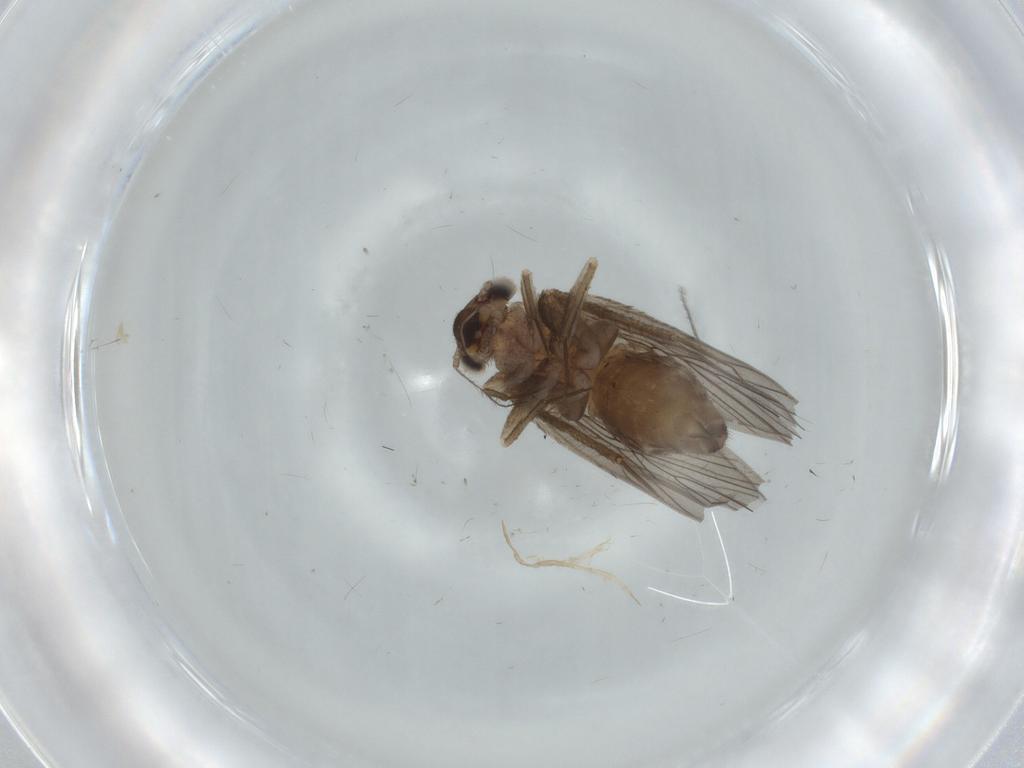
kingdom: Animalia
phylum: Arthropoda
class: Insecta
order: Psocodea
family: Lepidopsocidae
